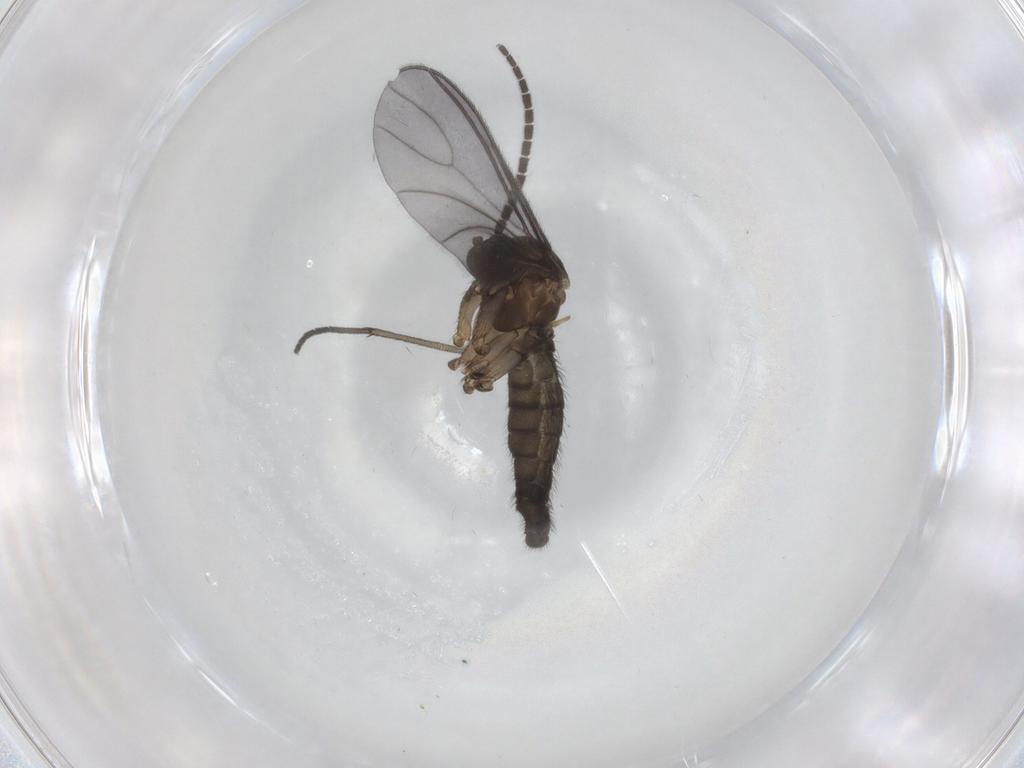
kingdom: Animalia
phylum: Arthropoda
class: Insecta
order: Diptera
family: Sciaridae
